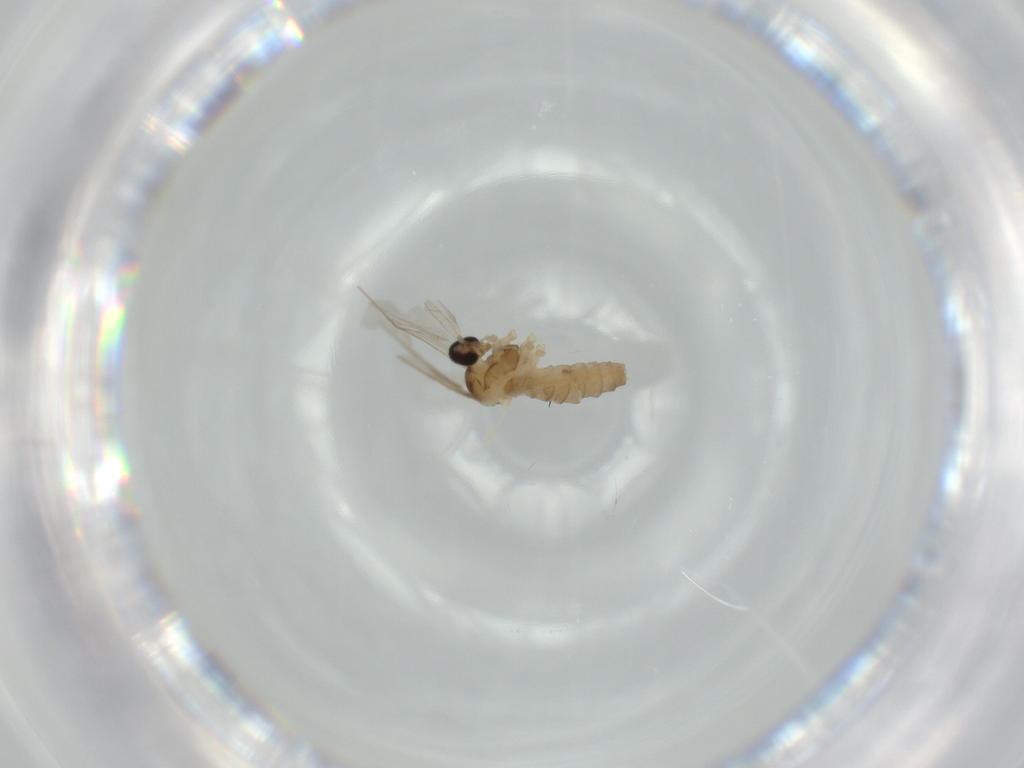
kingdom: Animalia
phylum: Arthropoda
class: Insecta
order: Diptera
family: Cecidomyiidae
